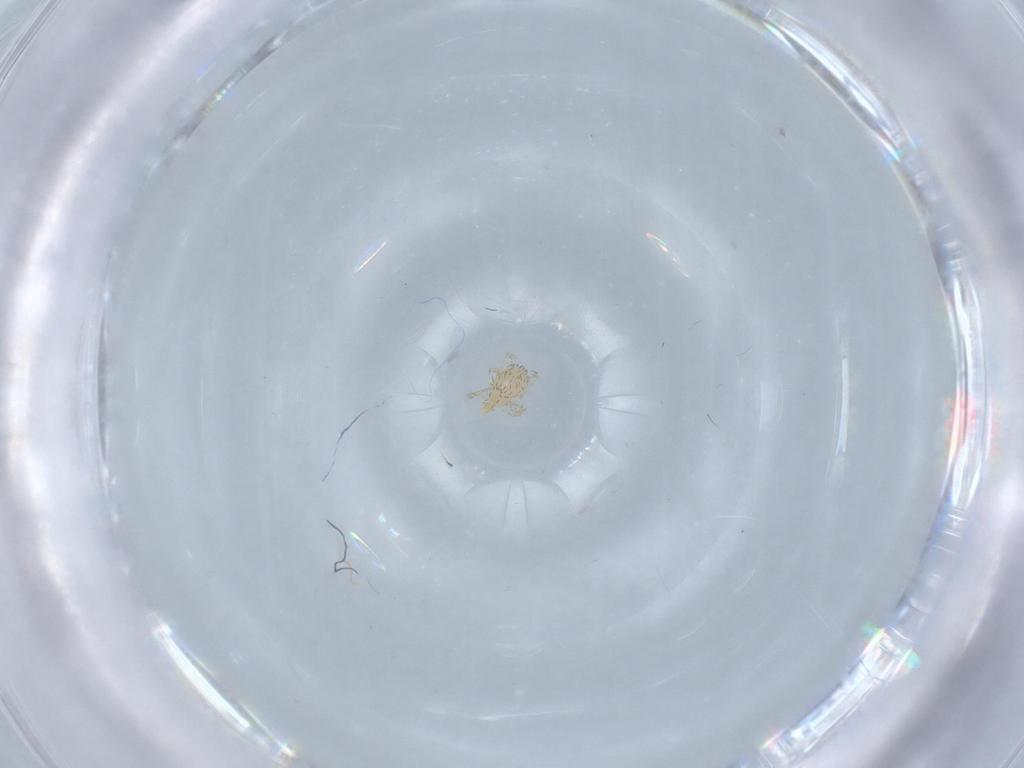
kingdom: Animalia
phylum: Arthropoda
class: Arachnida
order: Trombidiformes
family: Erythraeidae
